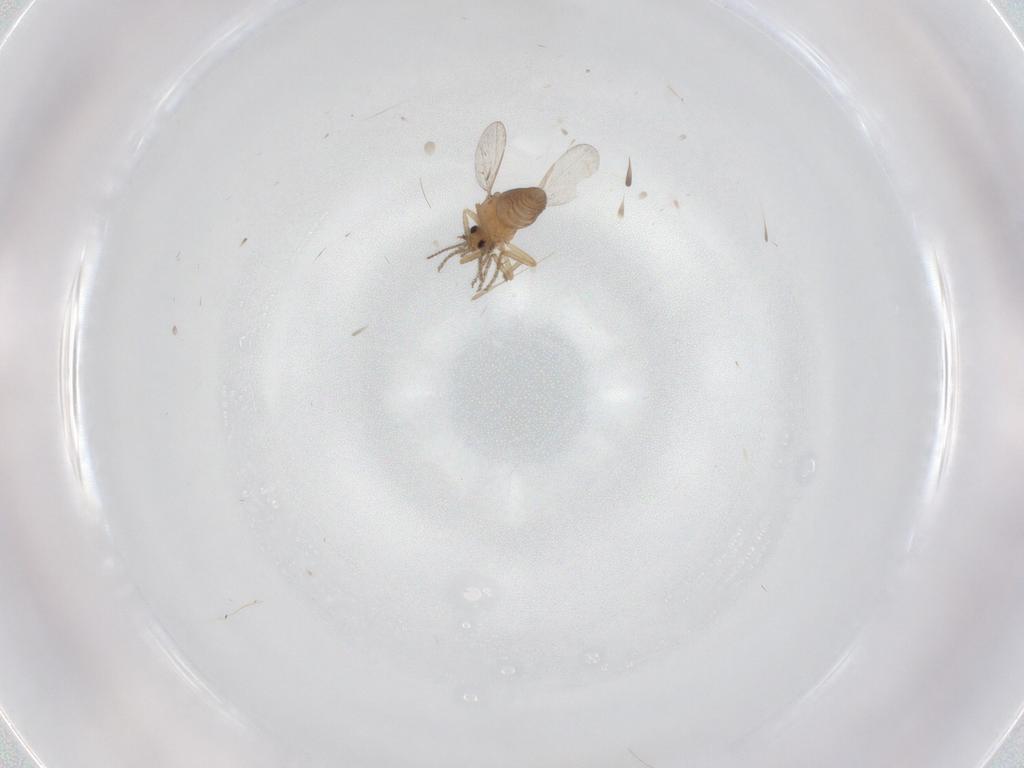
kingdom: Animalia
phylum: Arthropoda
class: Insecta
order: Diptera
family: Ceratopogonidae
